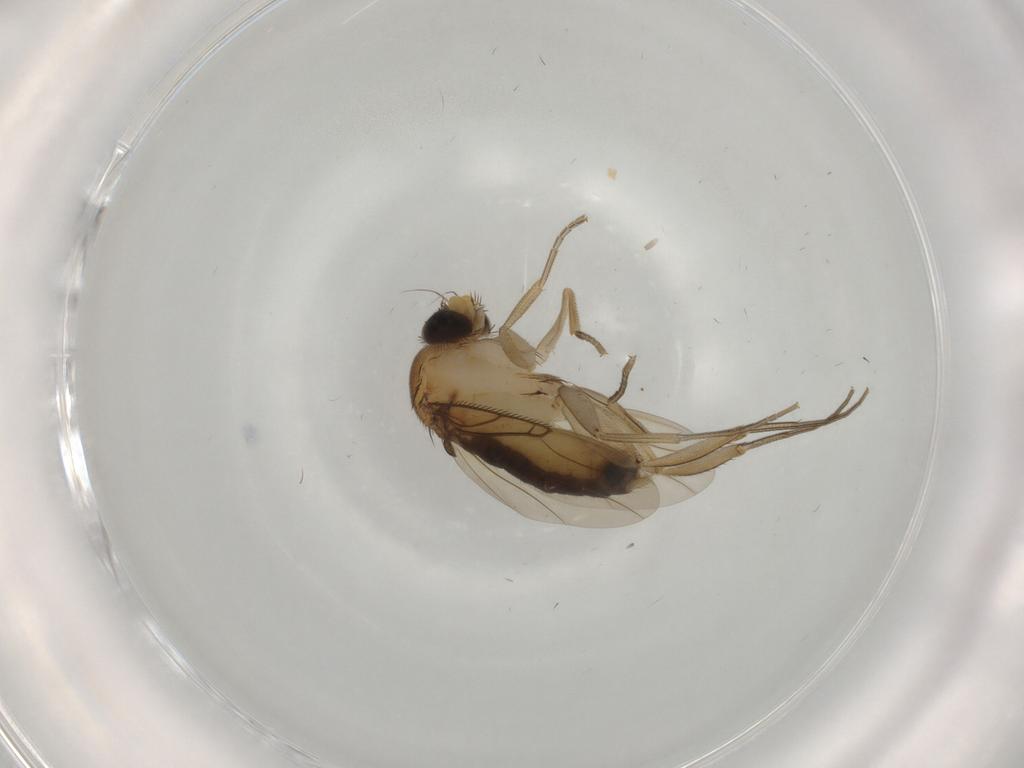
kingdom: Animalia
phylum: Arthropoda
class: Insecta
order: Diptera
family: Phoridae
